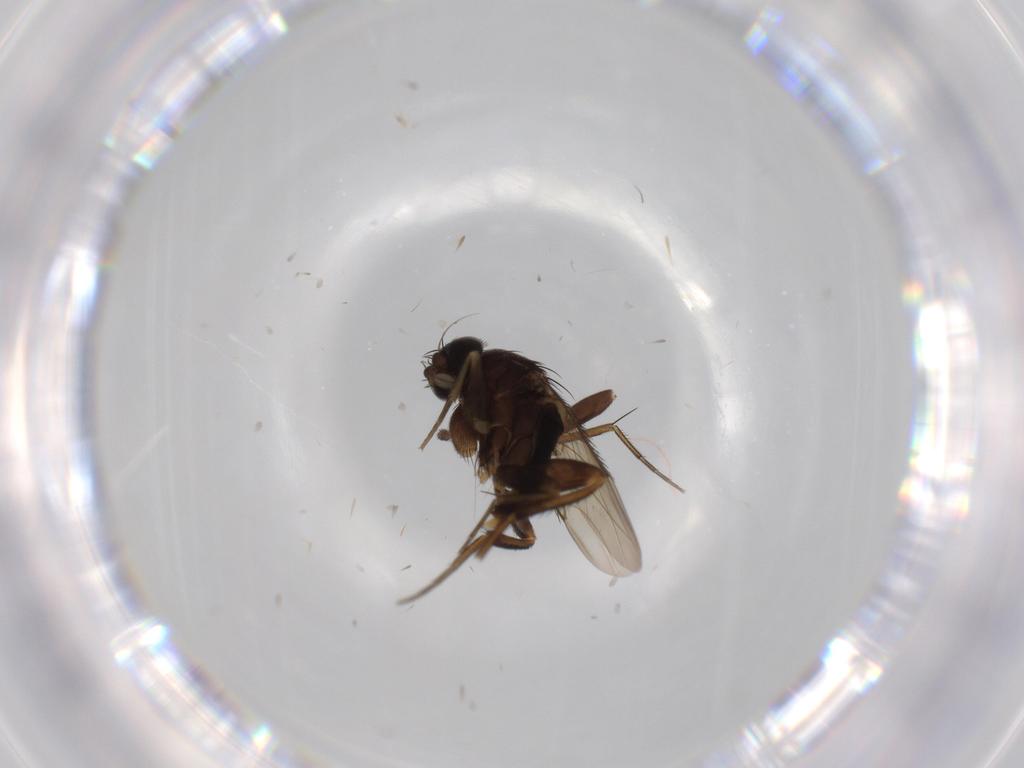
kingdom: Animalia
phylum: Arthropoda
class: Insecta
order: Diptera
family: Phoridae
